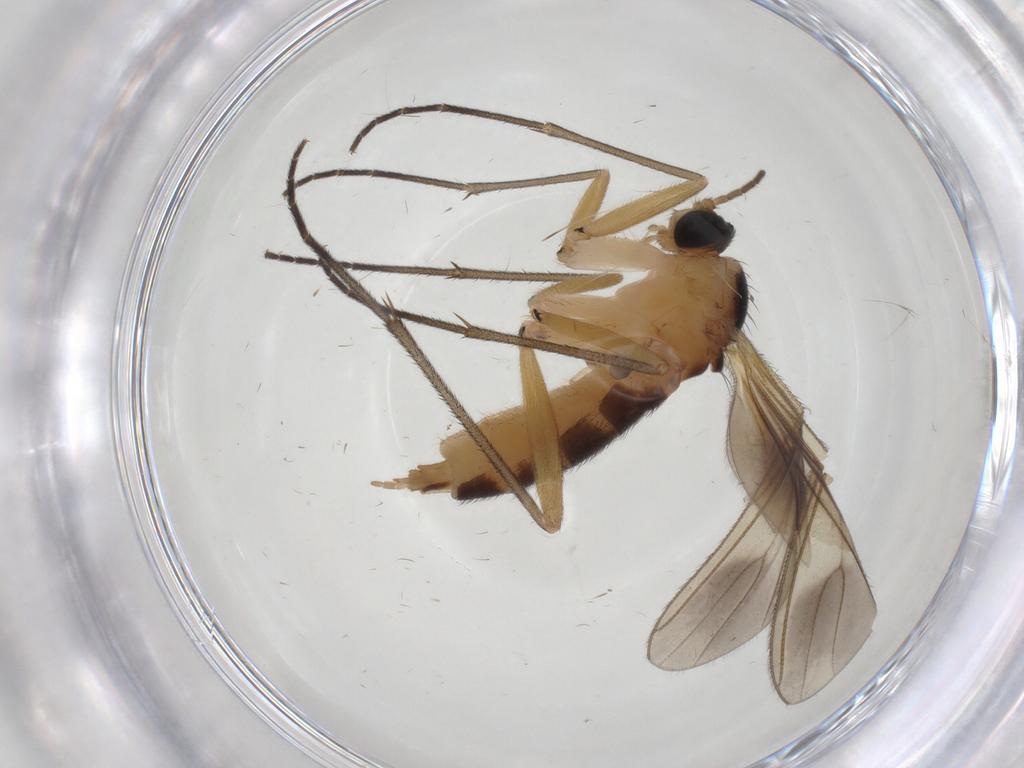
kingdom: Animalia
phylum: Arthropoda
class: Insecta
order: Diptera
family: Sciaridae
